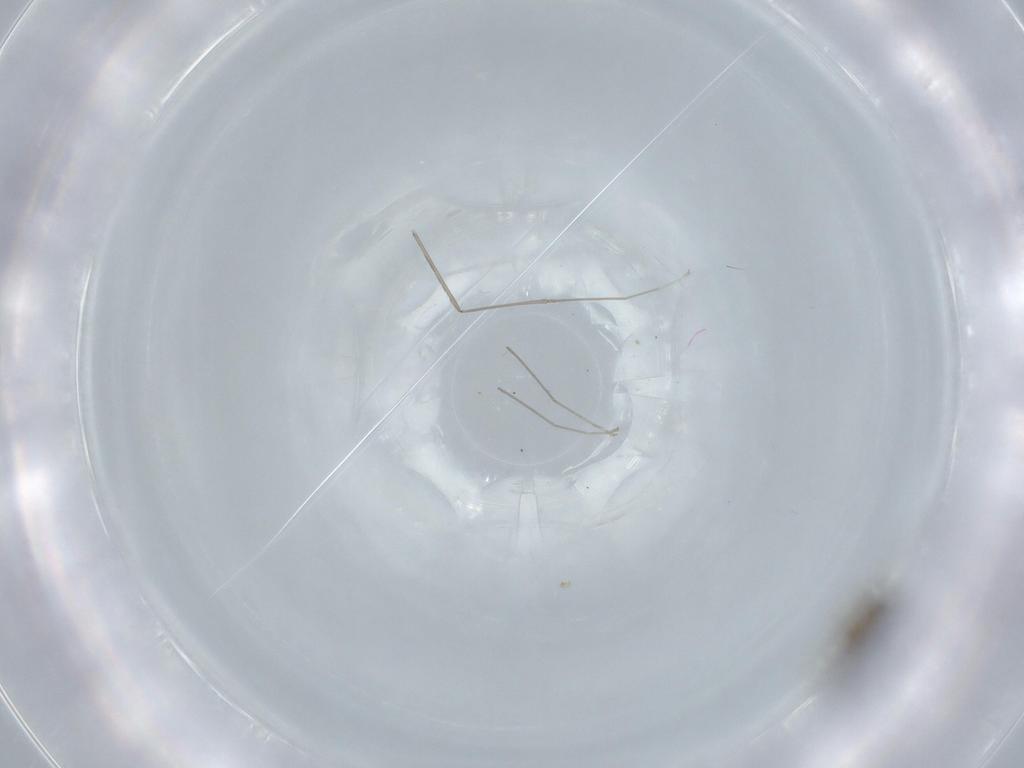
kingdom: Animalia
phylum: Arthropoda
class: Insecta
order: Diptera
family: Cecidomyiidae
